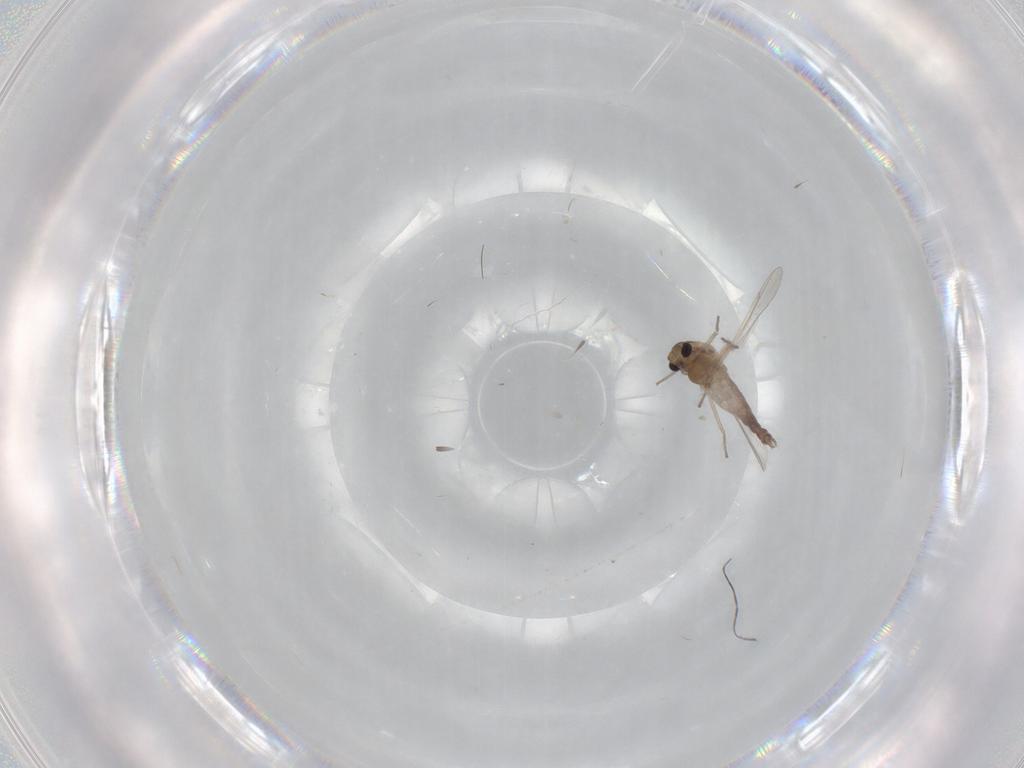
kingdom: Animalia
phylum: Arthropoda
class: Insecta
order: Diptera
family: Chironomidae
